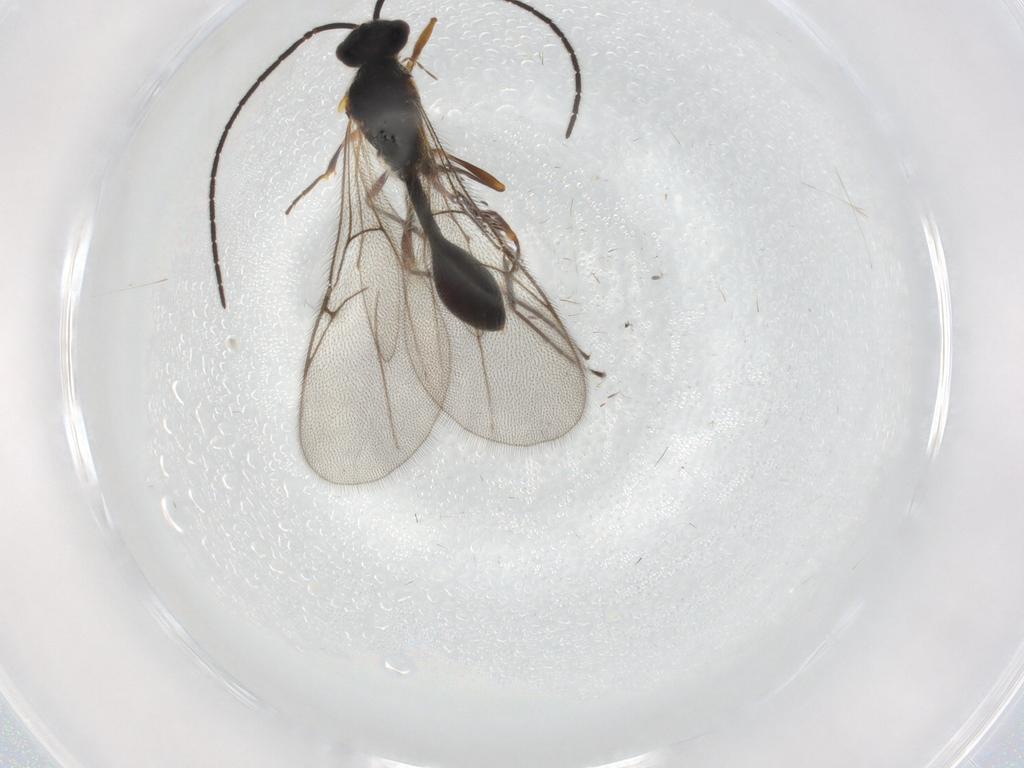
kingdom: Animalia
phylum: Arthropoda
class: Insecta
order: Hymenoptera
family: Diapriidae
